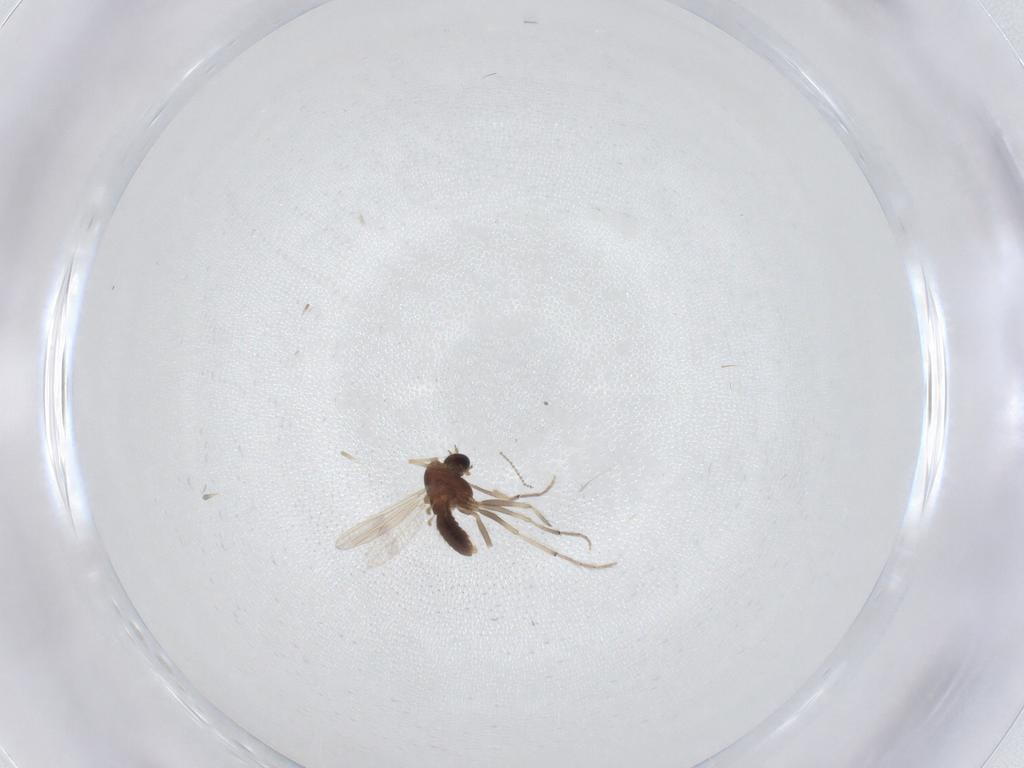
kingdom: Animalia
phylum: Arthropoda
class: Insecta
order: Diptera
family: Cecidomyiidae
